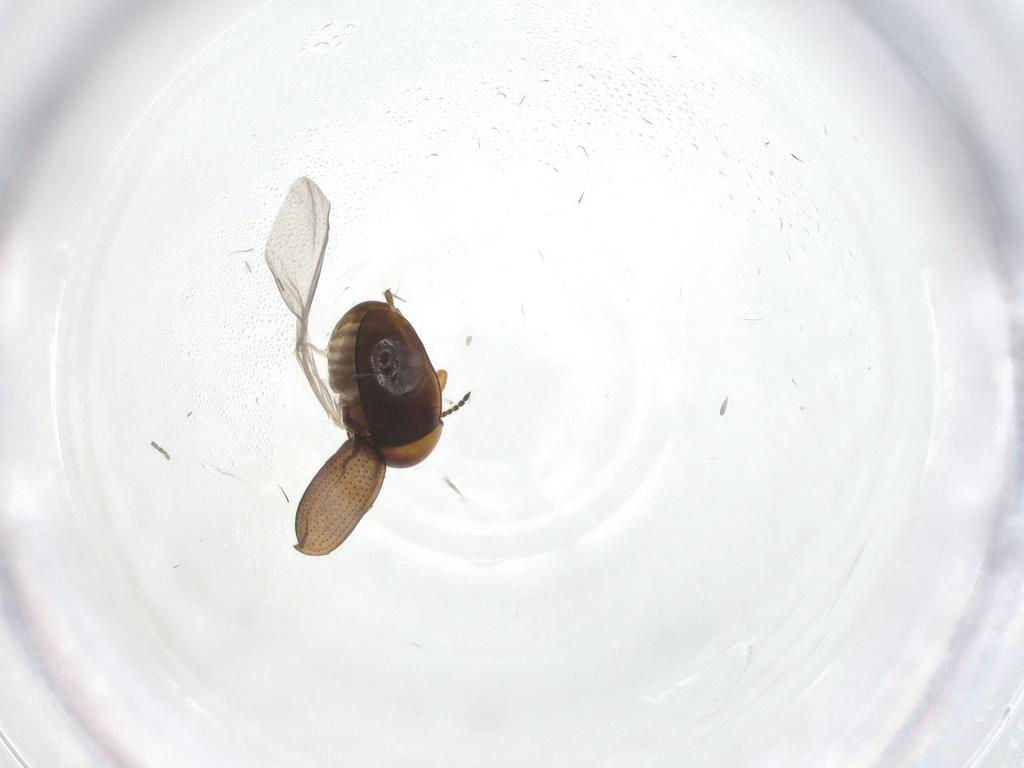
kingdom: Animalia
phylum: Arthropoda
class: Insecta
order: Coleoptera
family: Chrysomelidae
